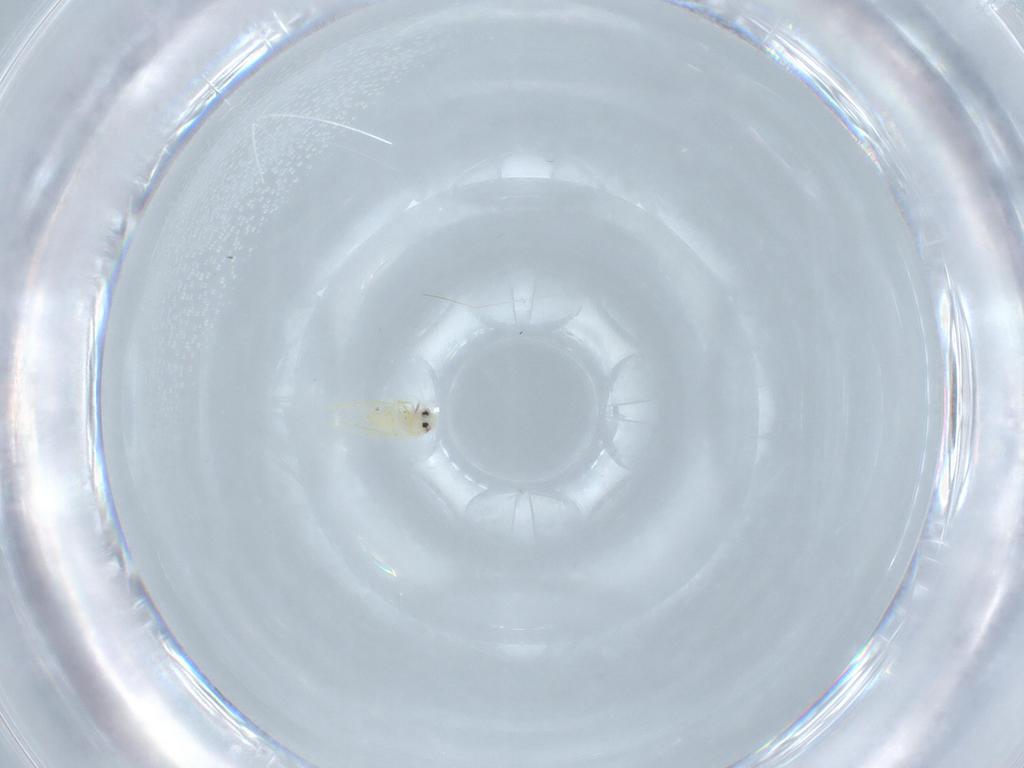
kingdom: Animalia
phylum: Arthropoda
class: Insecta
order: Hemiptera
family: Aleyrodidae
